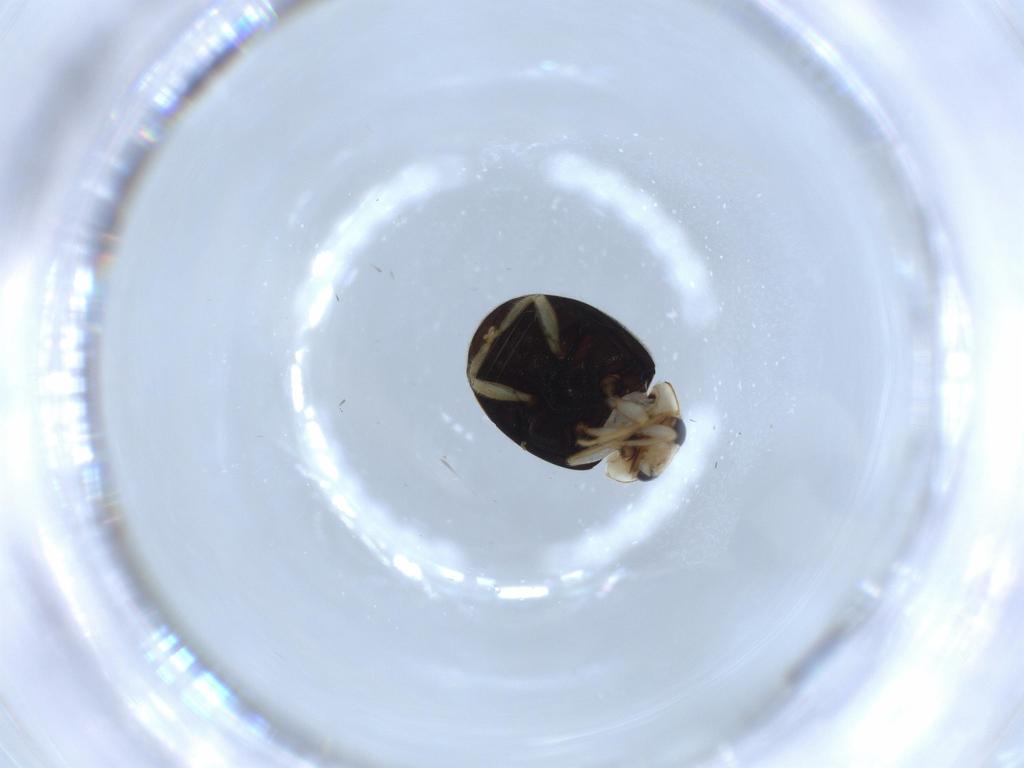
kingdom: Animalia
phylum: Arthropoda
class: Insecta
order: Coleoptera
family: Coccinellidae
